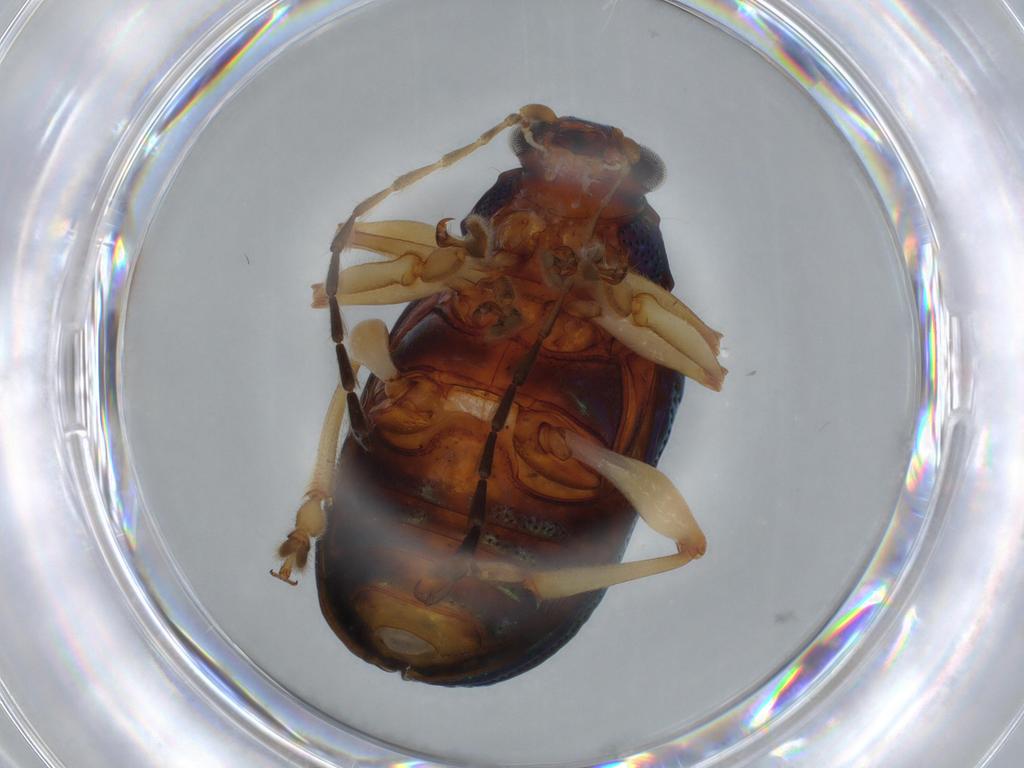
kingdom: Animalia
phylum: Arthropoda
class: Insecta
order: Coleoptera
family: Chrysomelidae
